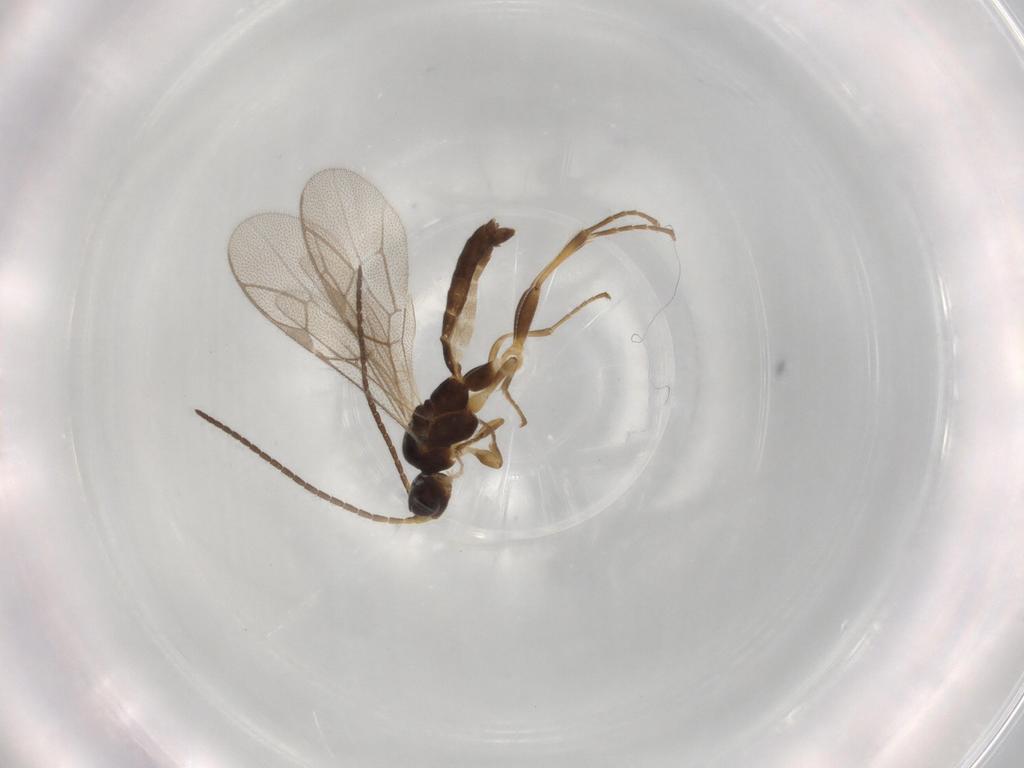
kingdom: Animalia
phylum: Arthropoda
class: Insecta
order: Hymenoptera
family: Ichneumonidae
